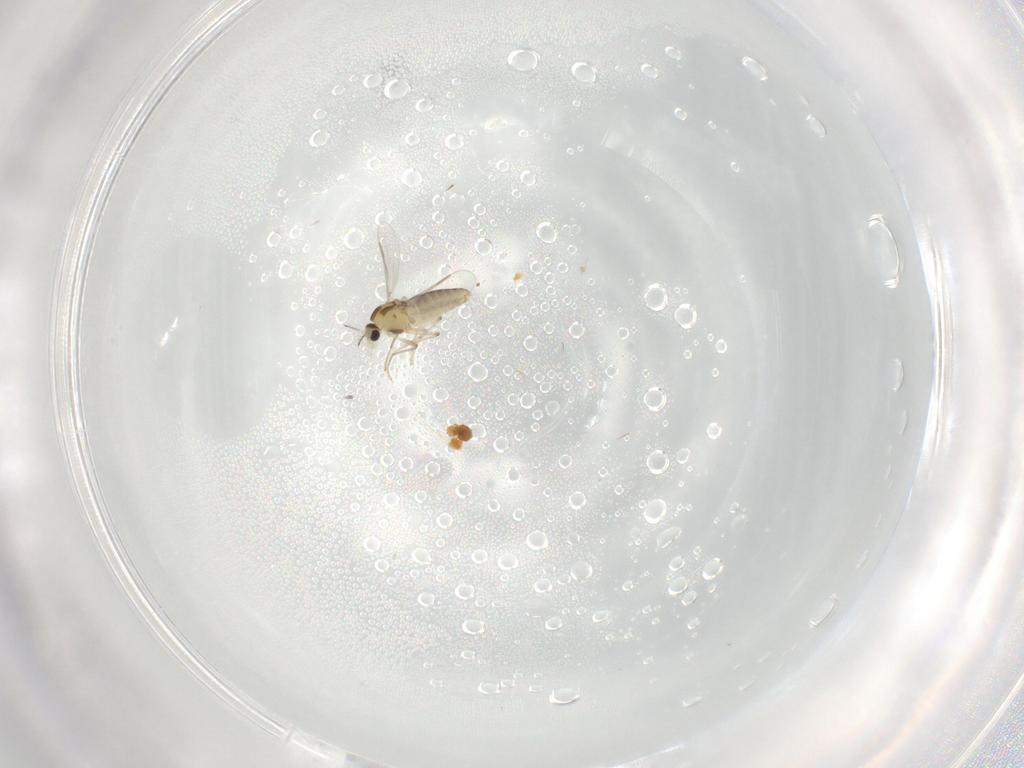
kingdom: Animalia
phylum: Arthropoda
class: Insecta
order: Diptera
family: Chironomidae
